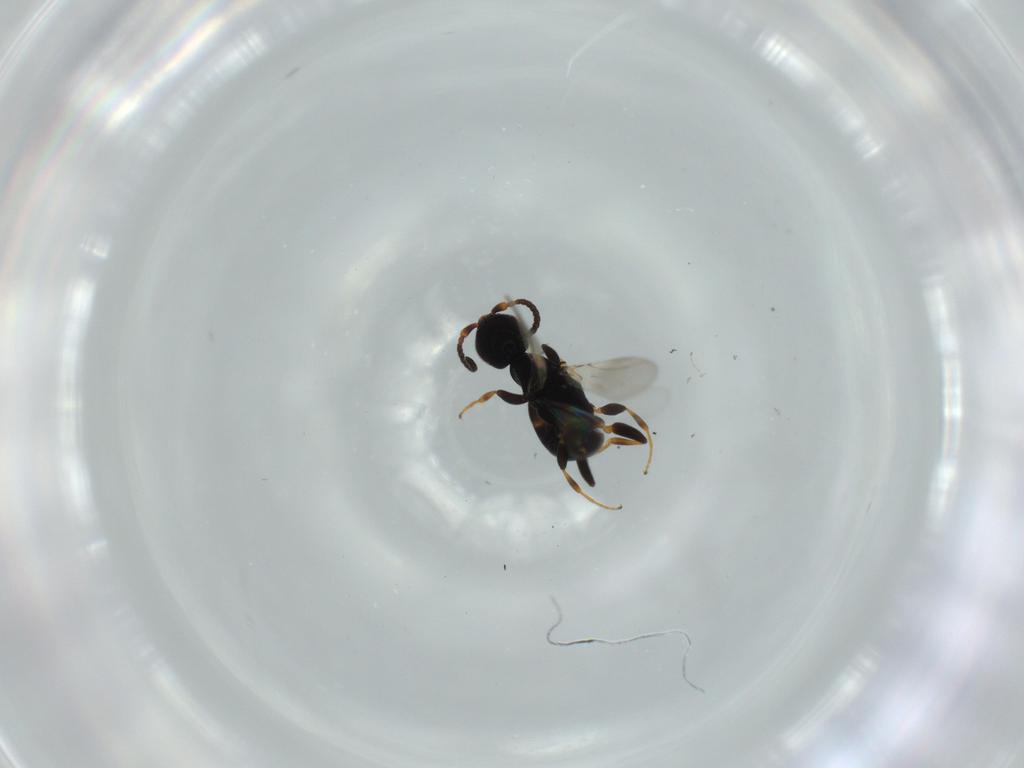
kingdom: Animalia
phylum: Arthropoda
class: Insecta
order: Hymenoptera
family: Bethylidae
